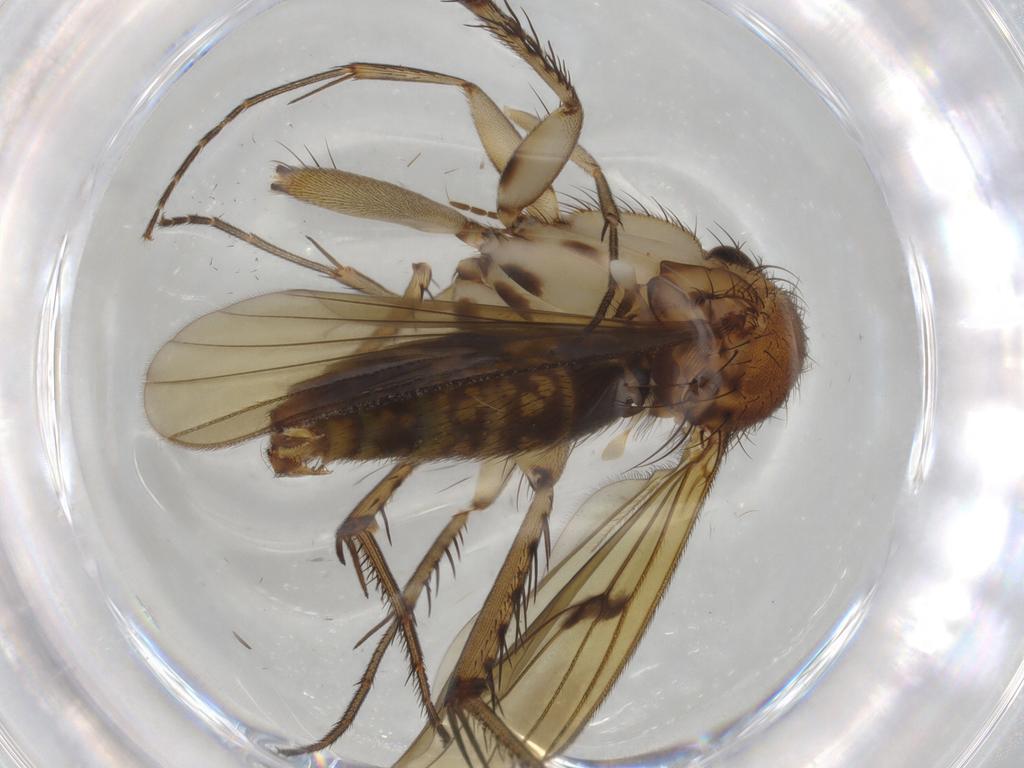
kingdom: Animalia
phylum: Arthropoda
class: Insecta
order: Diptera
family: Phoridae
